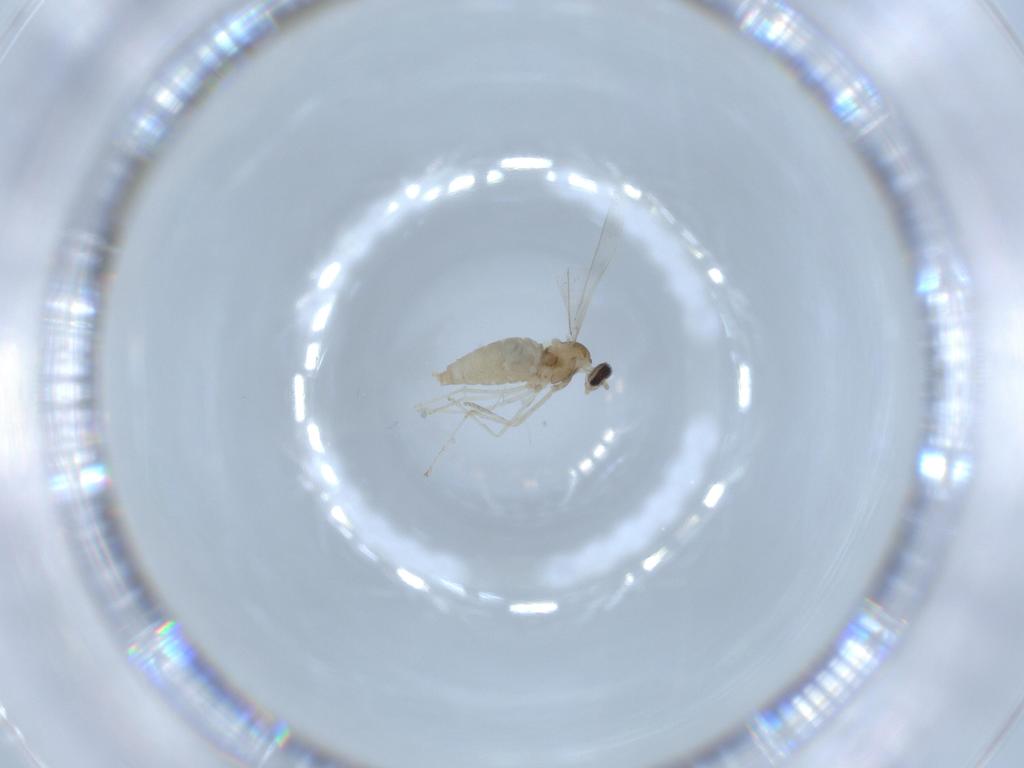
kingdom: Animalia
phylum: Arthropoda
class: Insecta
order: Diptera
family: Cecidomyiidae
